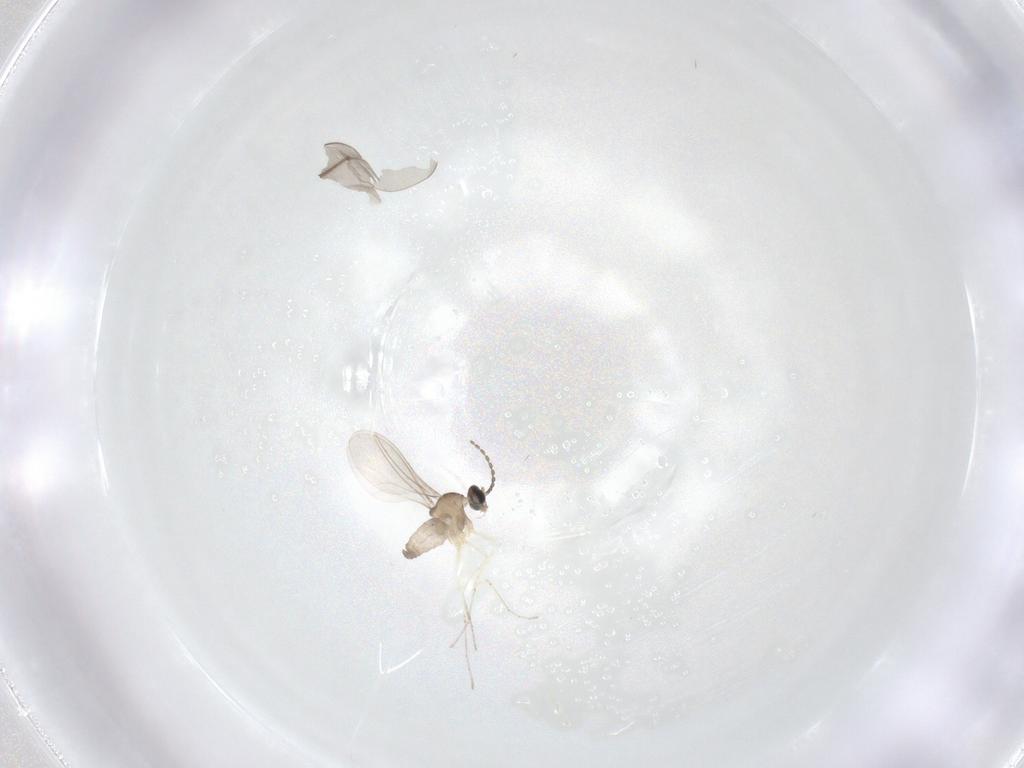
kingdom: Animalia
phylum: Arthropoda
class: Insecta
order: Diptera
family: Cecidomyiidae
